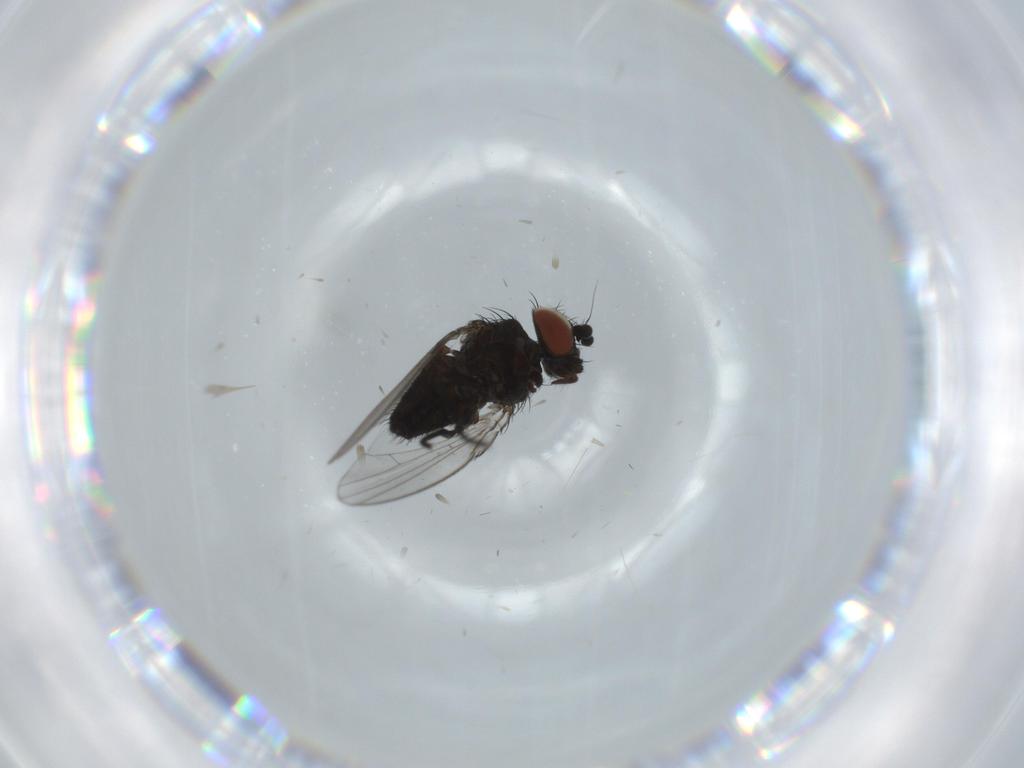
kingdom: Animalia
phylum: Arthropoda
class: Insecta
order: Diptera
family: Milichiidae
